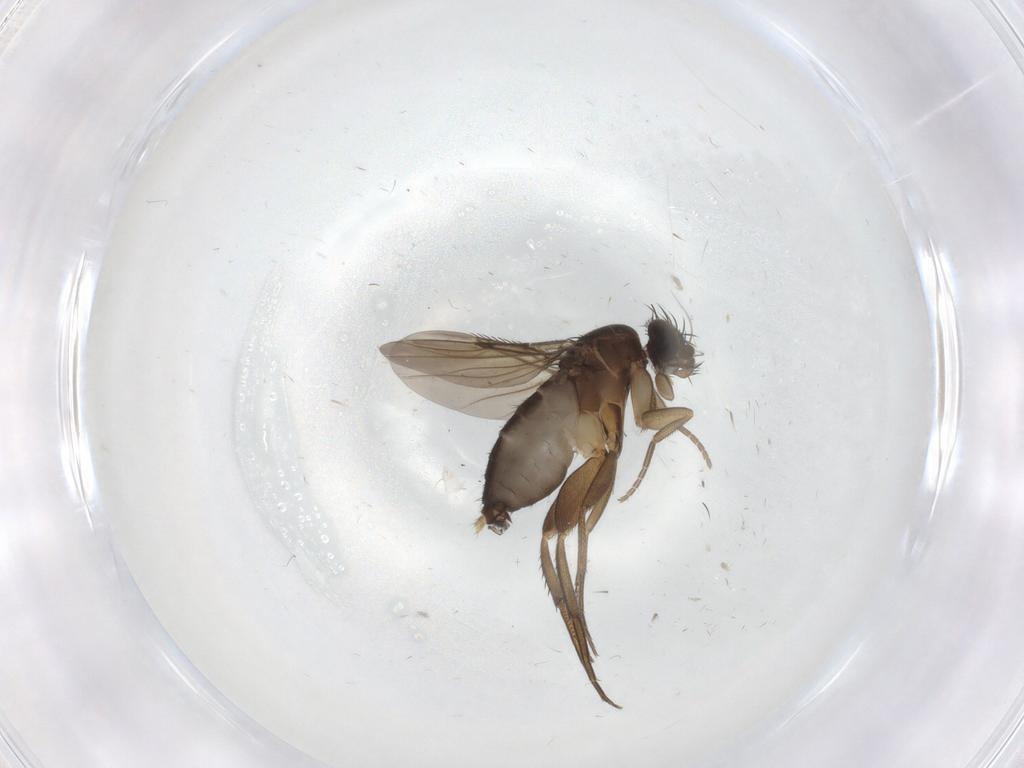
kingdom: Animalia
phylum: Arthropoda
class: Insecta
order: Diptera
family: Phoridae
